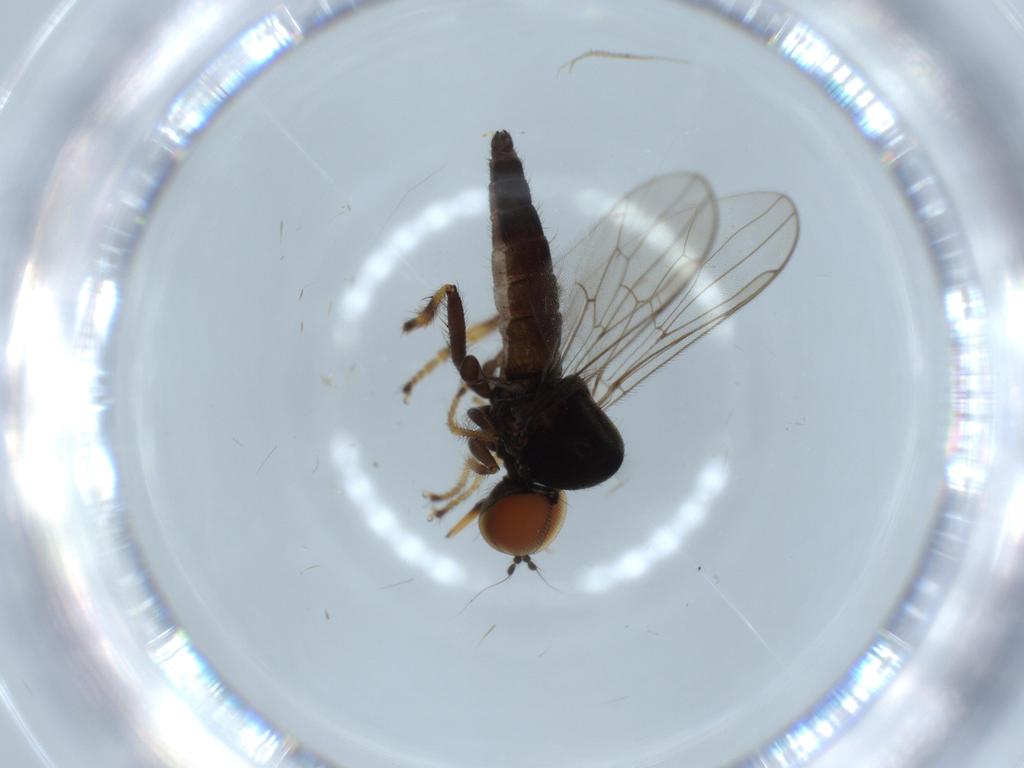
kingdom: Animalia
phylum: Arthropoda
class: Insecta
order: Diptera
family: Hybotidae
